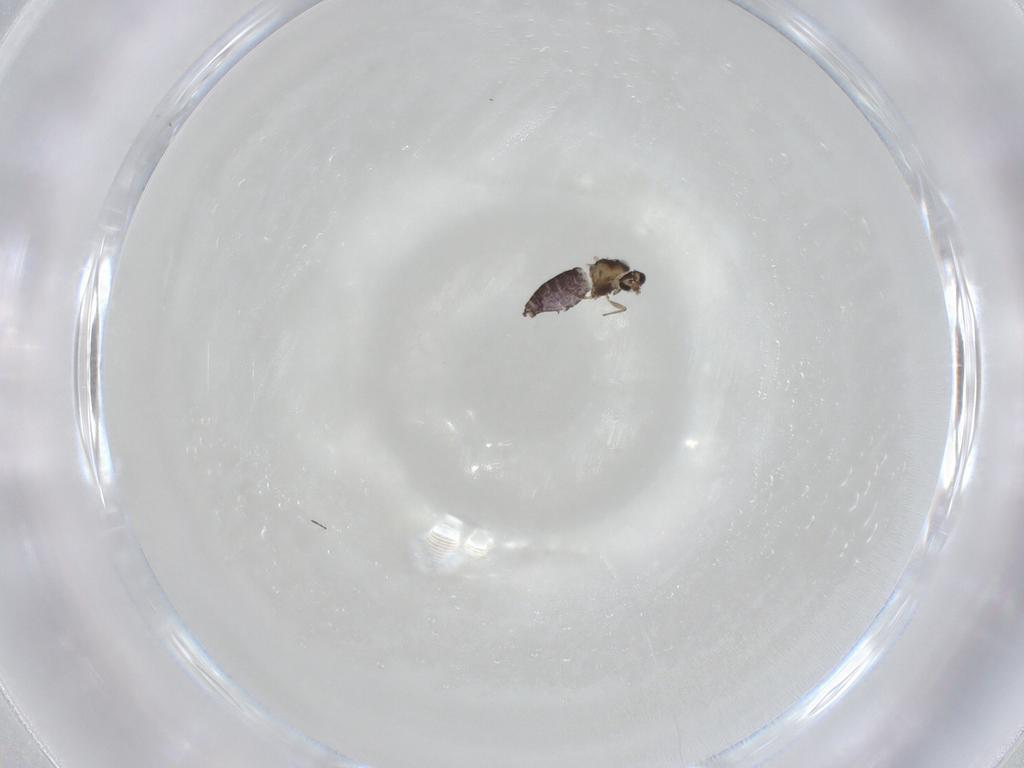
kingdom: Animalia
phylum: Arthropoda
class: Insecta
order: Diptera
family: Chironomidae
